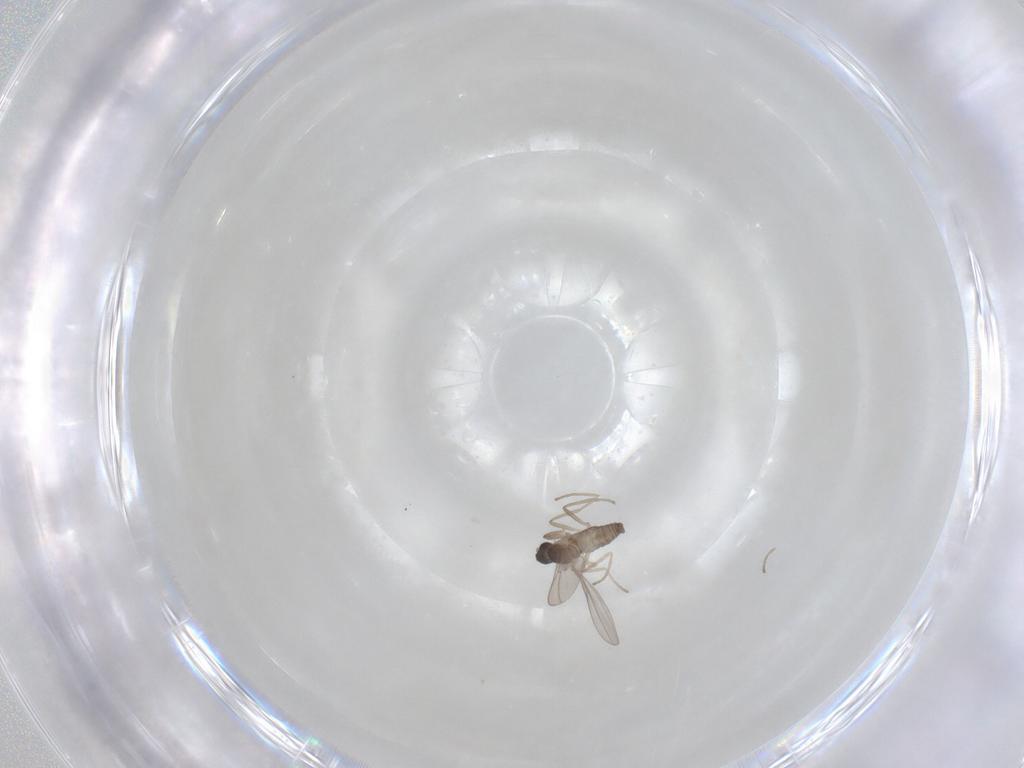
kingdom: Animalia
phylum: Arthropoda
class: Insecta
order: Diptera
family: Cecidomyiidae
